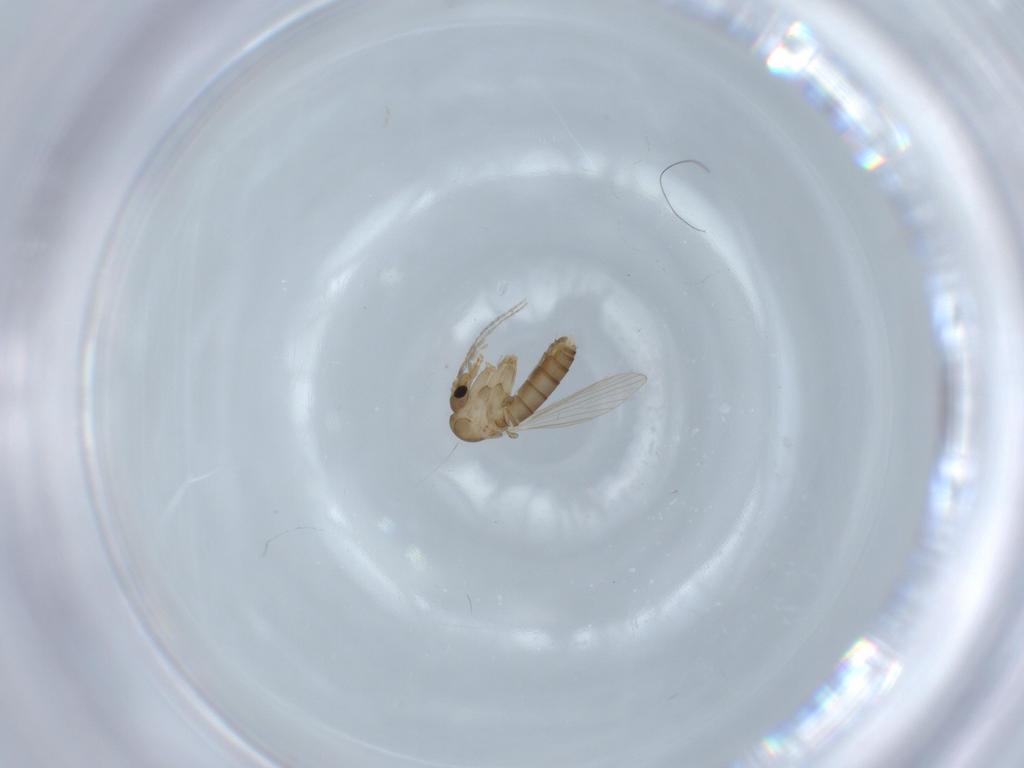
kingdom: Animalia
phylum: Arthropoda
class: Insecta
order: Diptera
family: Psychodidae
